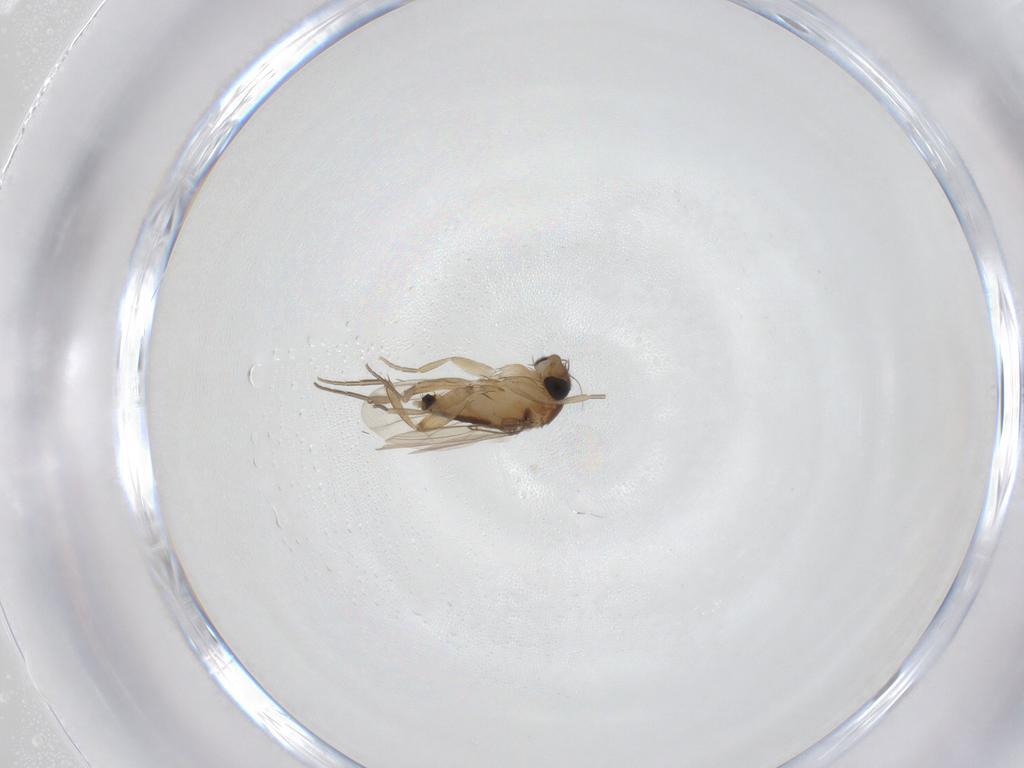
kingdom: Animalia
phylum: Arthropoda
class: Insecta
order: Diptera
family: Phoridae
